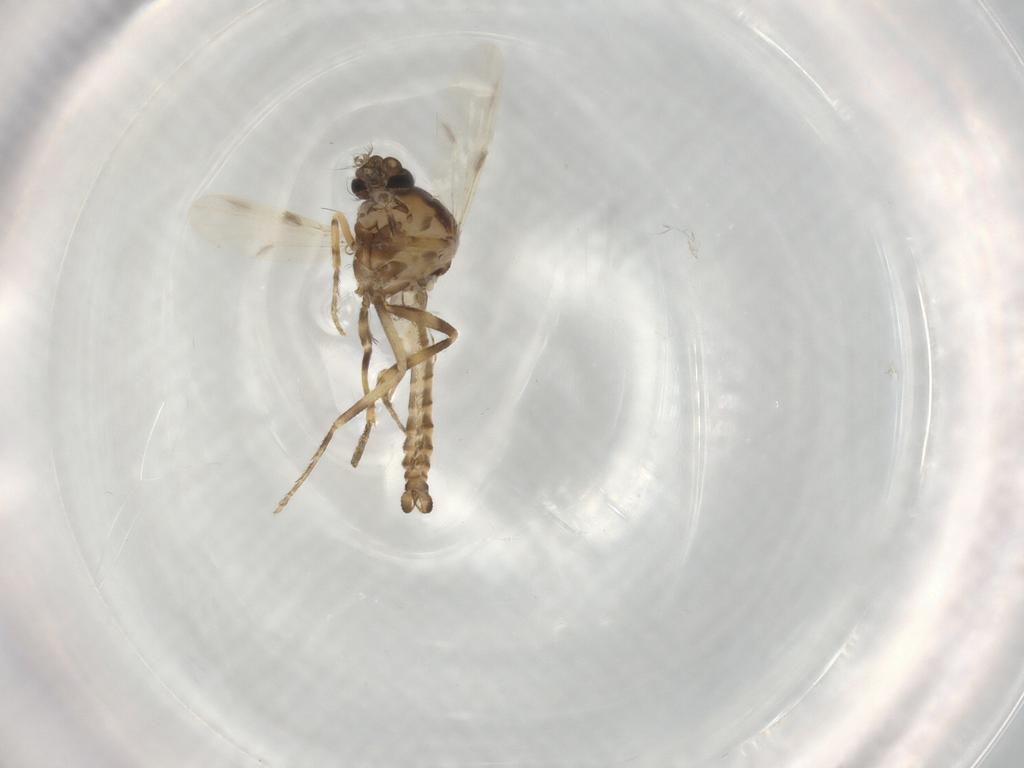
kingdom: Animalia
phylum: Arthropoda
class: Insecta
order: Diptera
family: Ceratopogonidae
